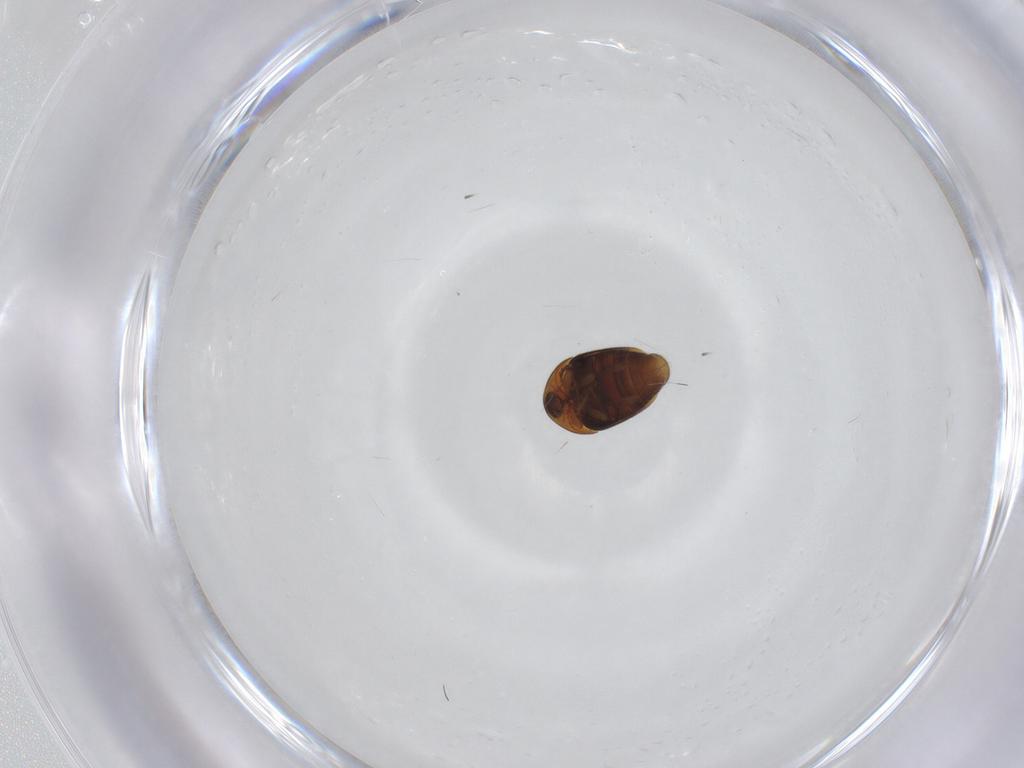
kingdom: Animalia
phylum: Arthropoda
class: Insecta
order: Coleoptera
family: Corylophidae
